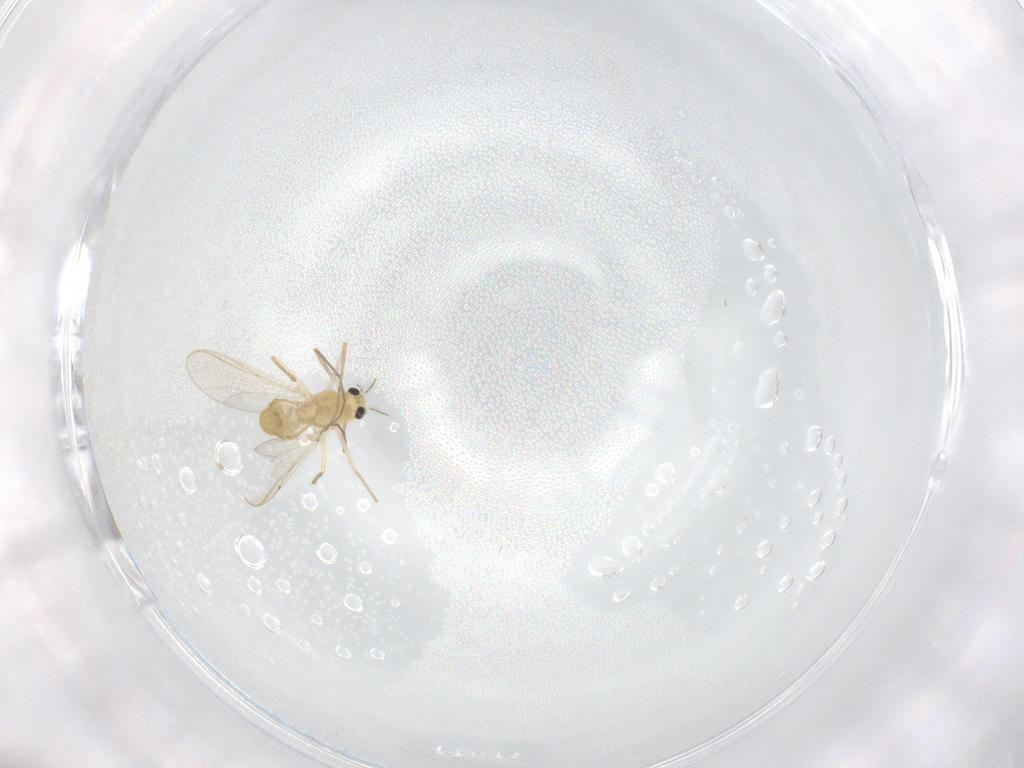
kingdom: Animalia
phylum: Arthropoda
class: Insecta
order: Diptera
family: Chironomidae
